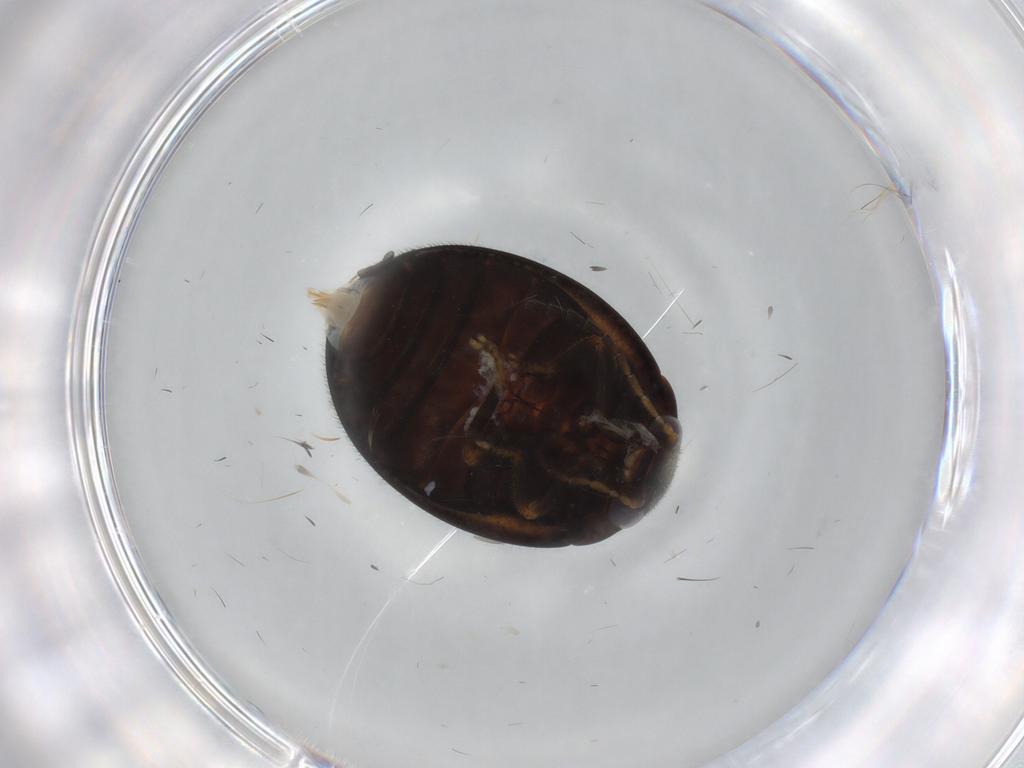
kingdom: Animalia
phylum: Arthropoda
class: Insecta
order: Coleoptera
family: Scirtidae
